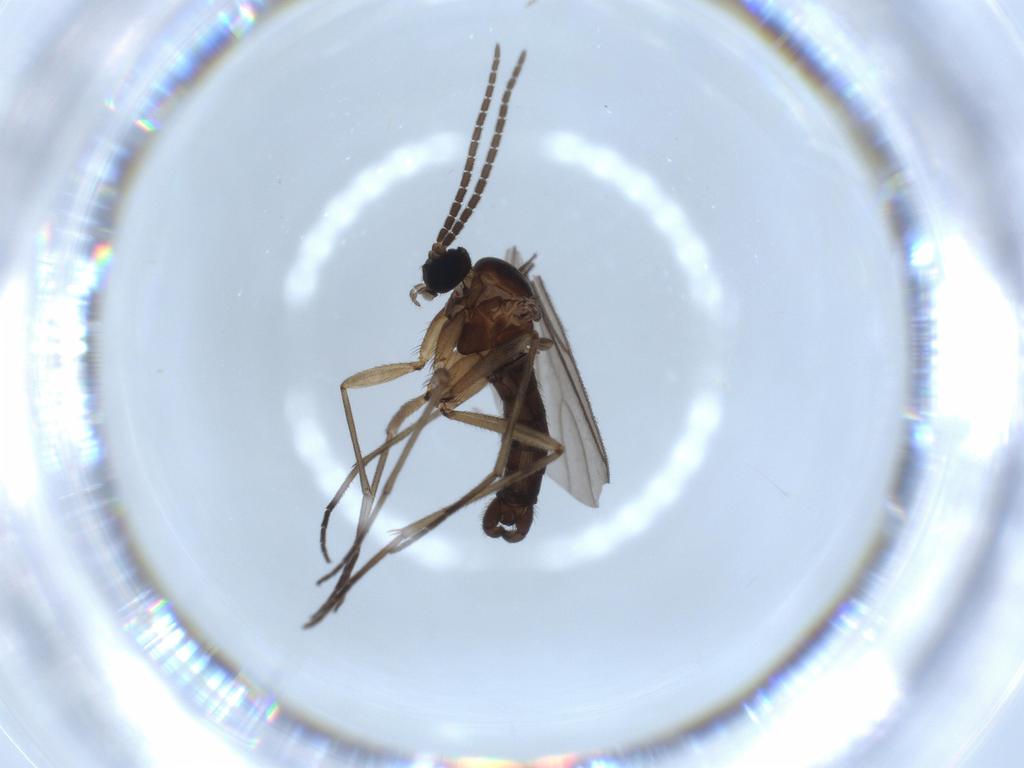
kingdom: Animalia
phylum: Arthropoda
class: Insecta
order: Diptera
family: Sciaridae
